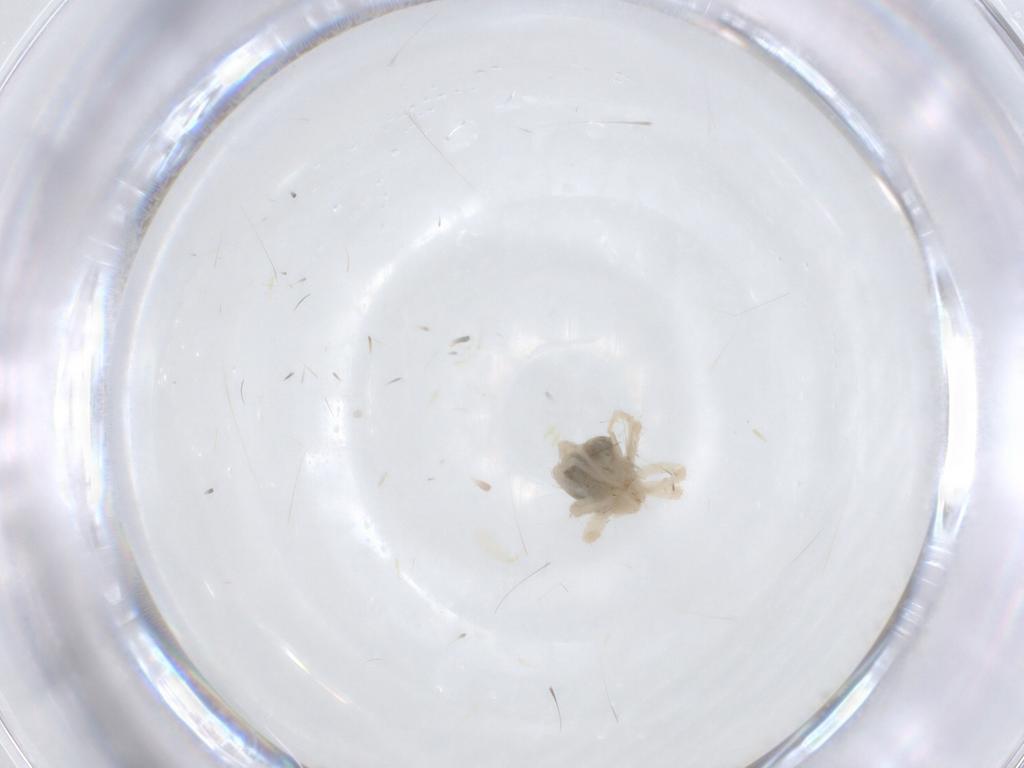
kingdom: Animalia
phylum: Arthropoda
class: Arachnida
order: Trombidiformes
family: Anystidae
